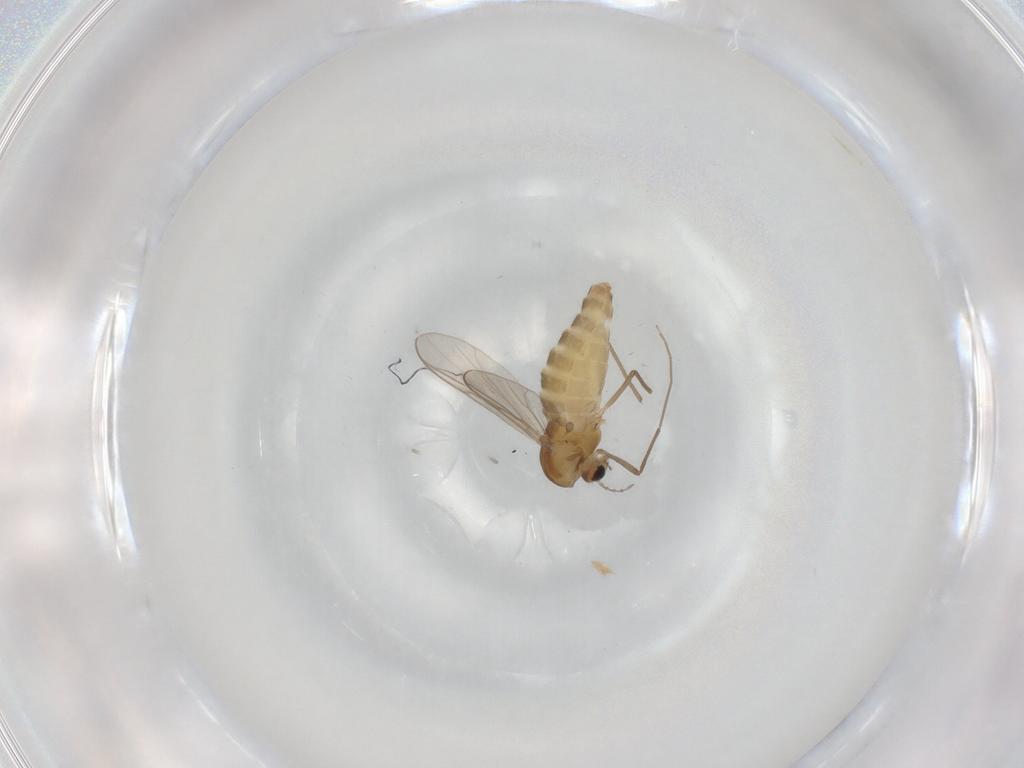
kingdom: Animalia
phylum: Arthropoda
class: Insecta
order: Diptera
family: Chironomidae
